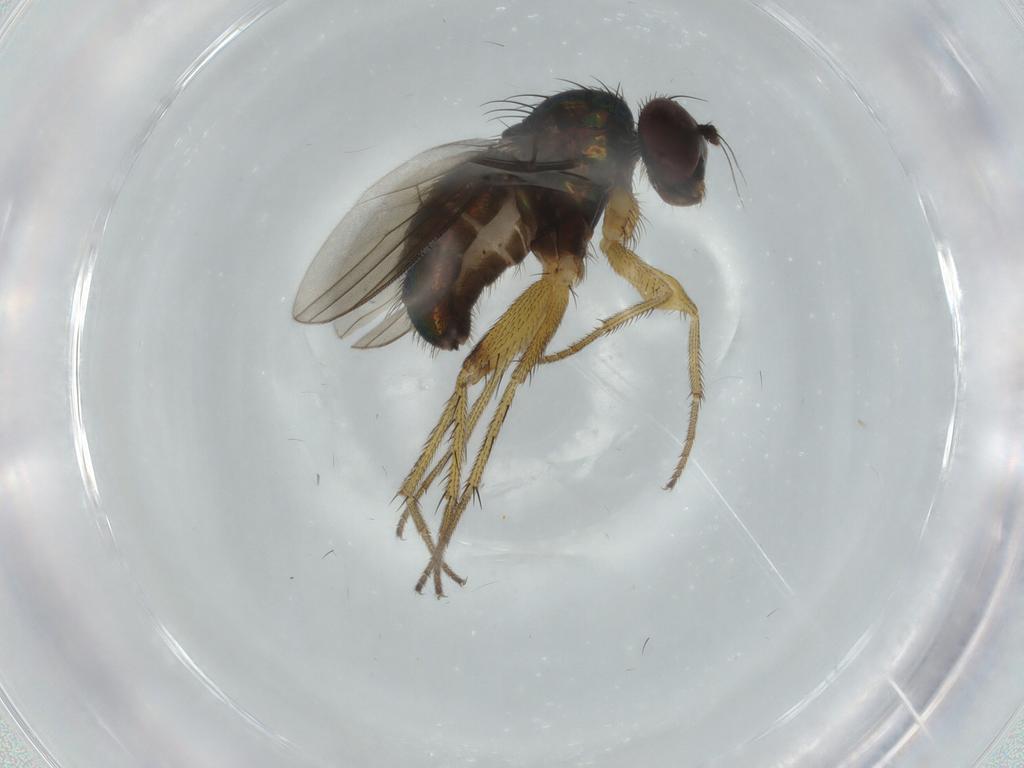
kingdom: Animalia
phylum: Arthropoda
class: Insecta
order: Diptera
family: Dolichopodidae
